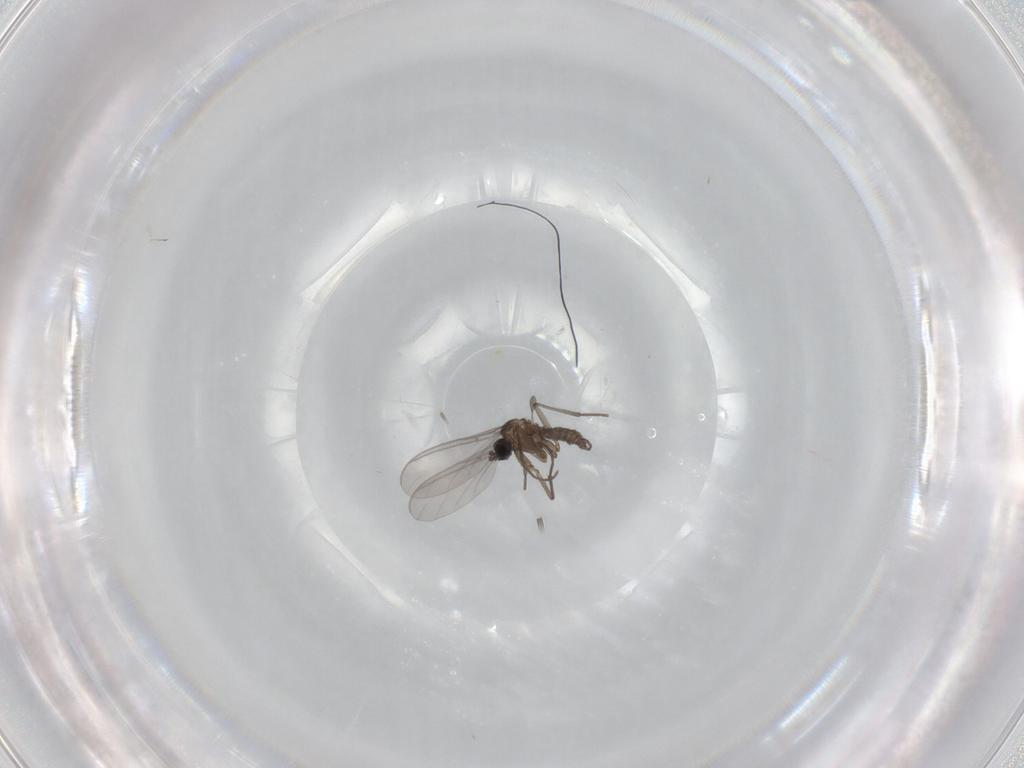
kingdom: Animalia
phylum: Arthropoda
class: Insecta
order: Diptera
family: Sciaridae
